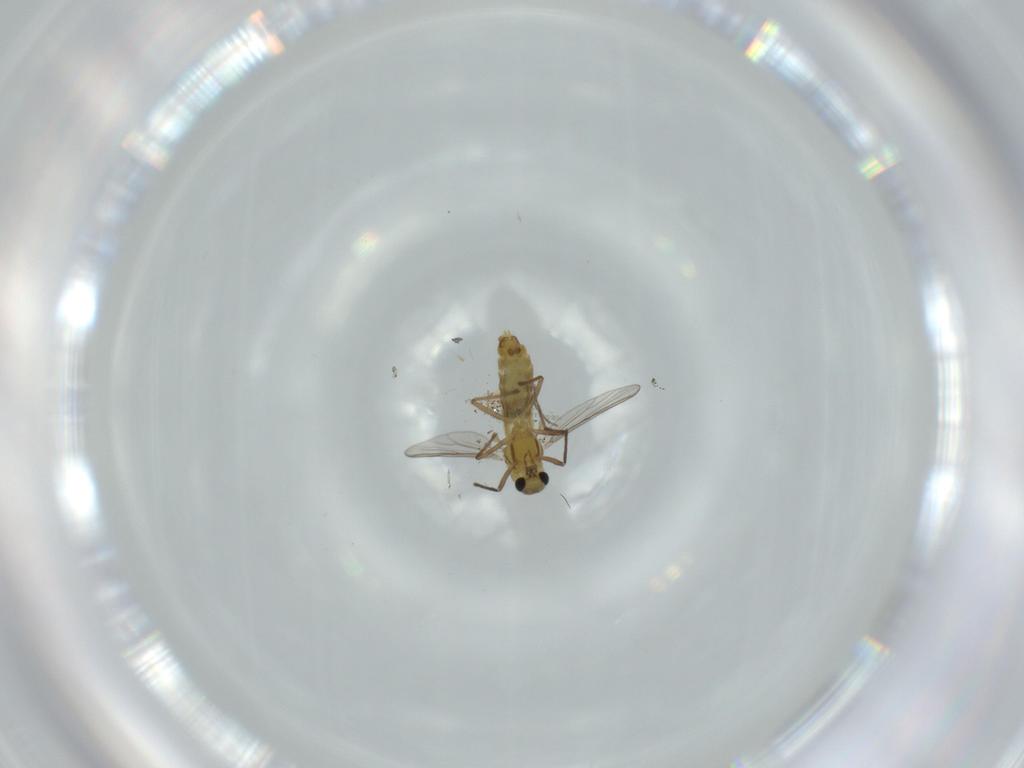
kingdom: Animalia
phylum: Arthropoda
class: Insecta
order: Diptera
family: Chironomidae
